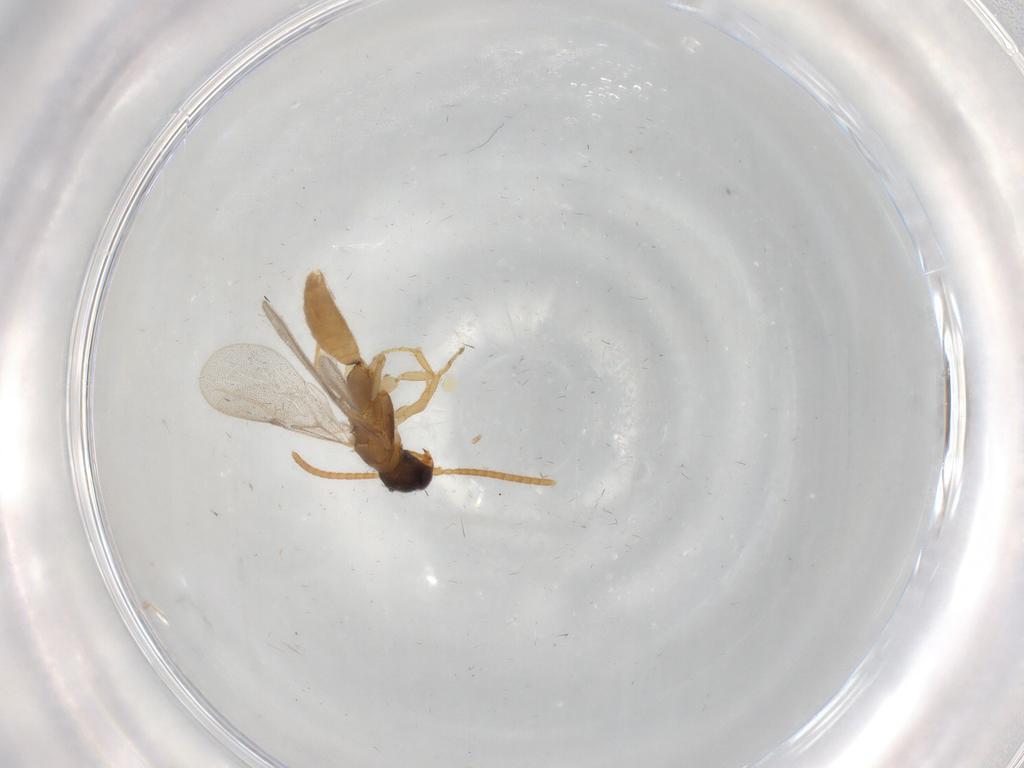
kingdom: Animalia
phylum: Arthropoda
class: Insecta
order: Hymenoptera
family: Bethylidae
